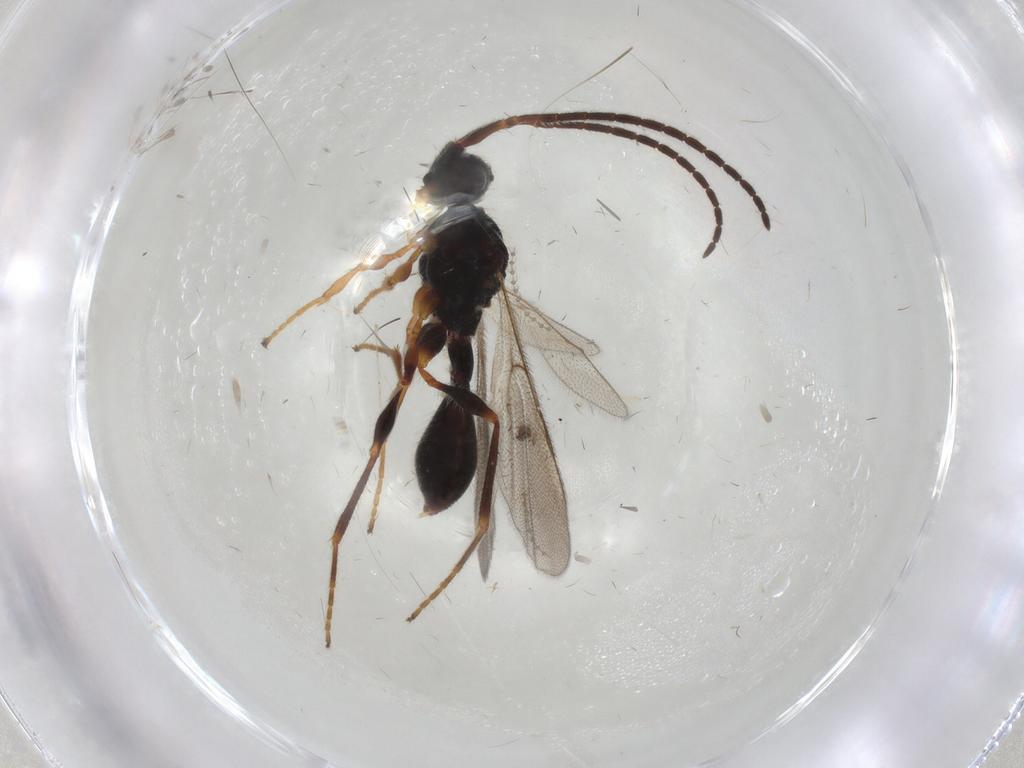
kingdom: Animalia
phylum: Arthropoda
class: Insecta
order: Hymenoptera
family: Diapriidae
